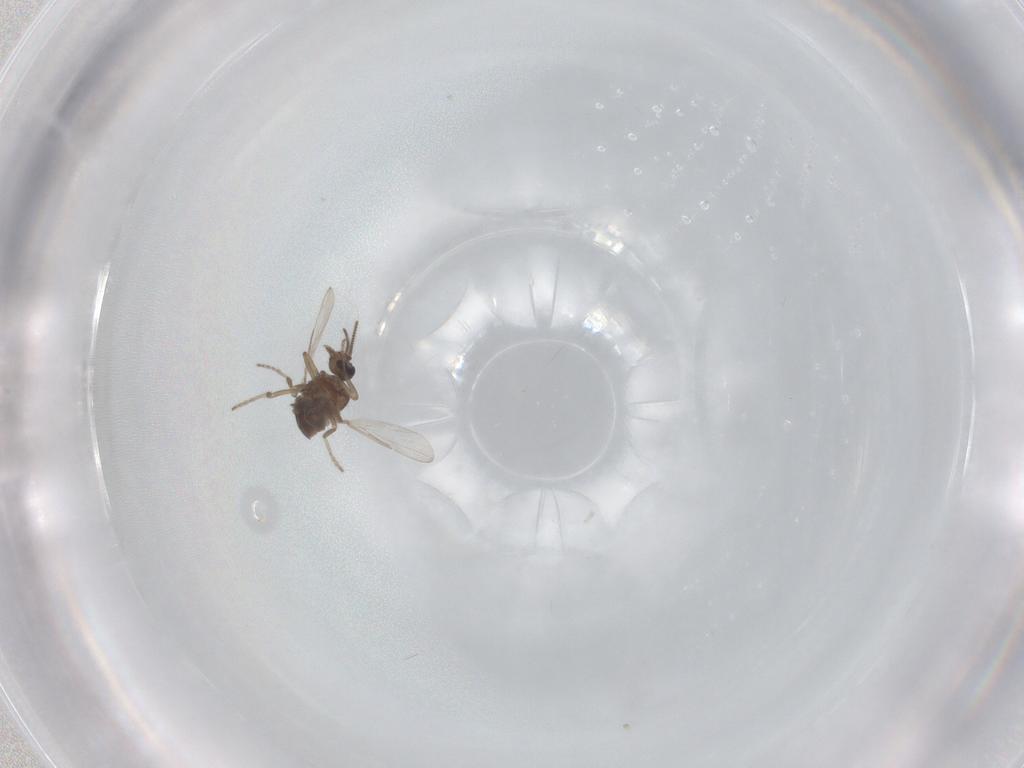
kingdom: Animalia
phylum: Arthropoda
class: Insecta
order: Diptera
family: Ceratopogonidae
